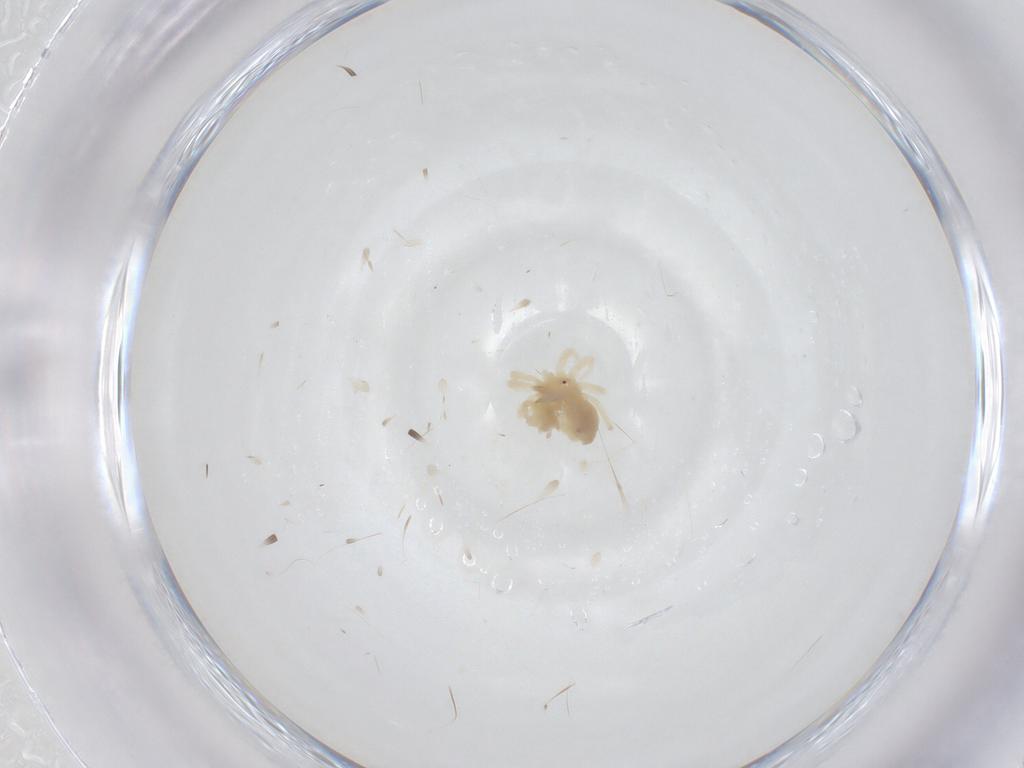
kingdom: Animalia
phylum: Arthropoda
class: Arachnida
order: Trombidiformes
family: Anystidae
